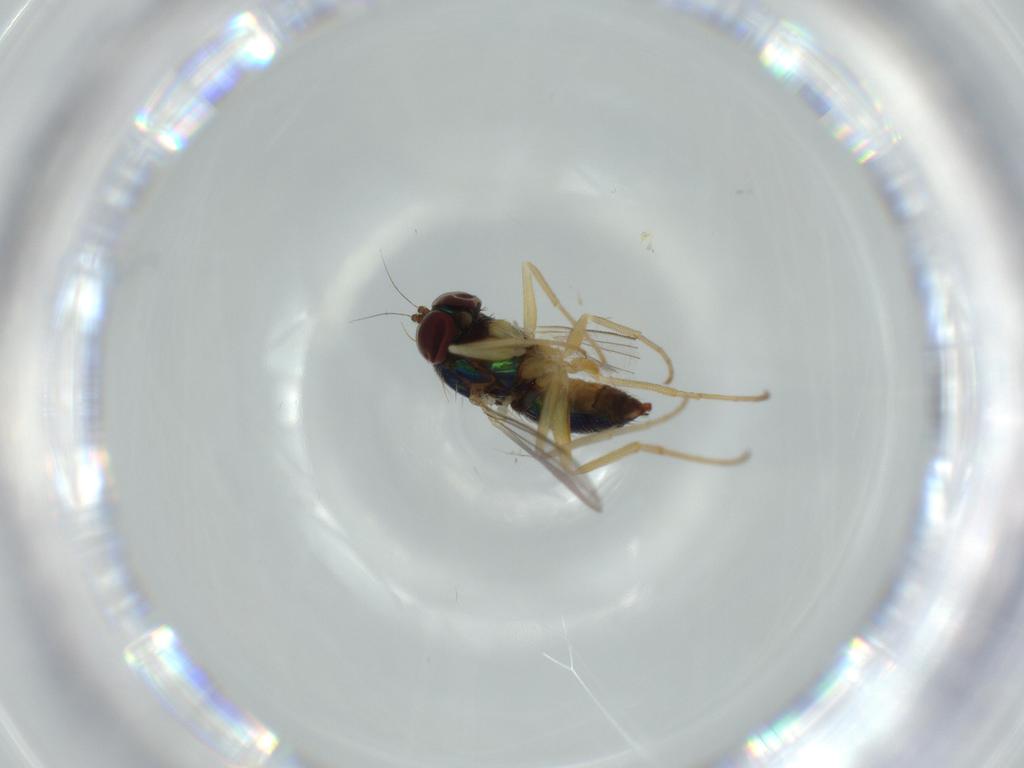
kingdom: Animalia
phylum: Arthropoda
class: Insecta
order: Diptera
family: Dolichopodidae
